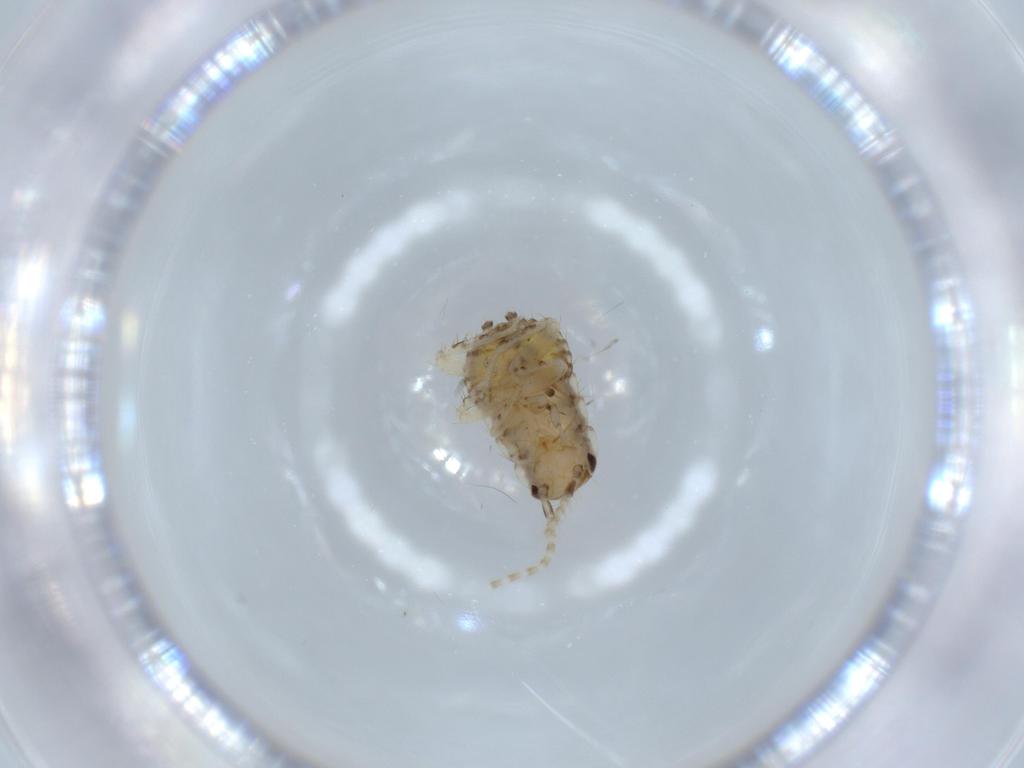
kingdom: Animalia
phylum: Arthropoda
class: Insecta
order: Blattodea
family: Ectobiidae
